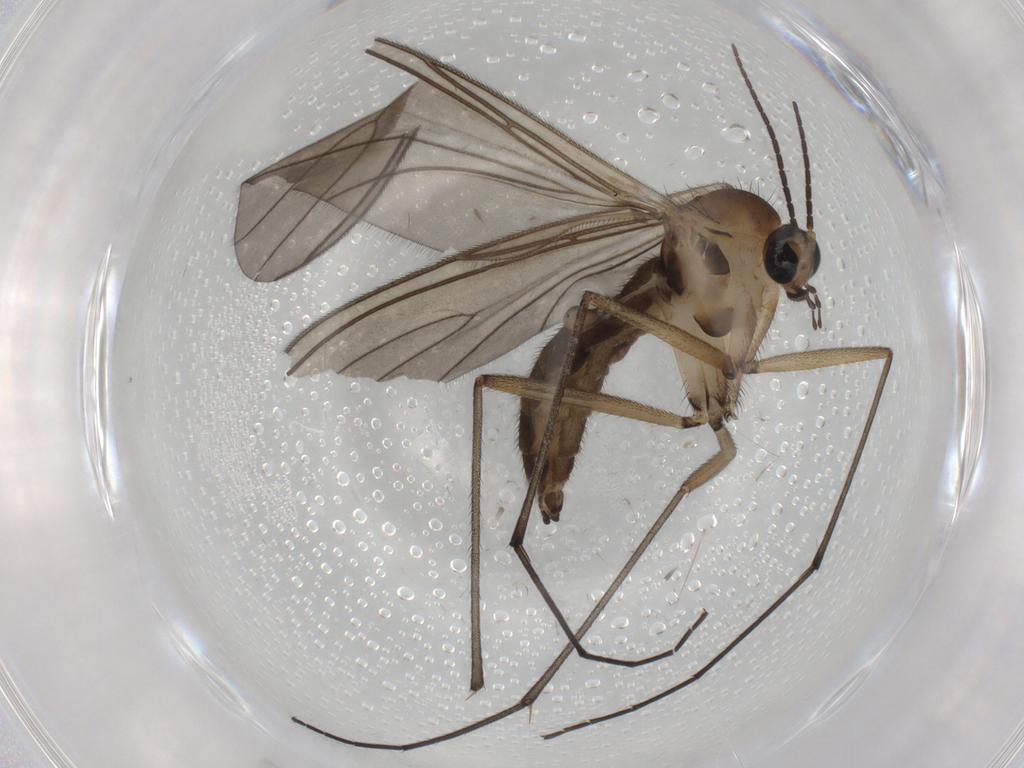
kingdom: Animalia
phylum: Arthropoda
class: Insecta
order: Diptera
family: Sciaridae
